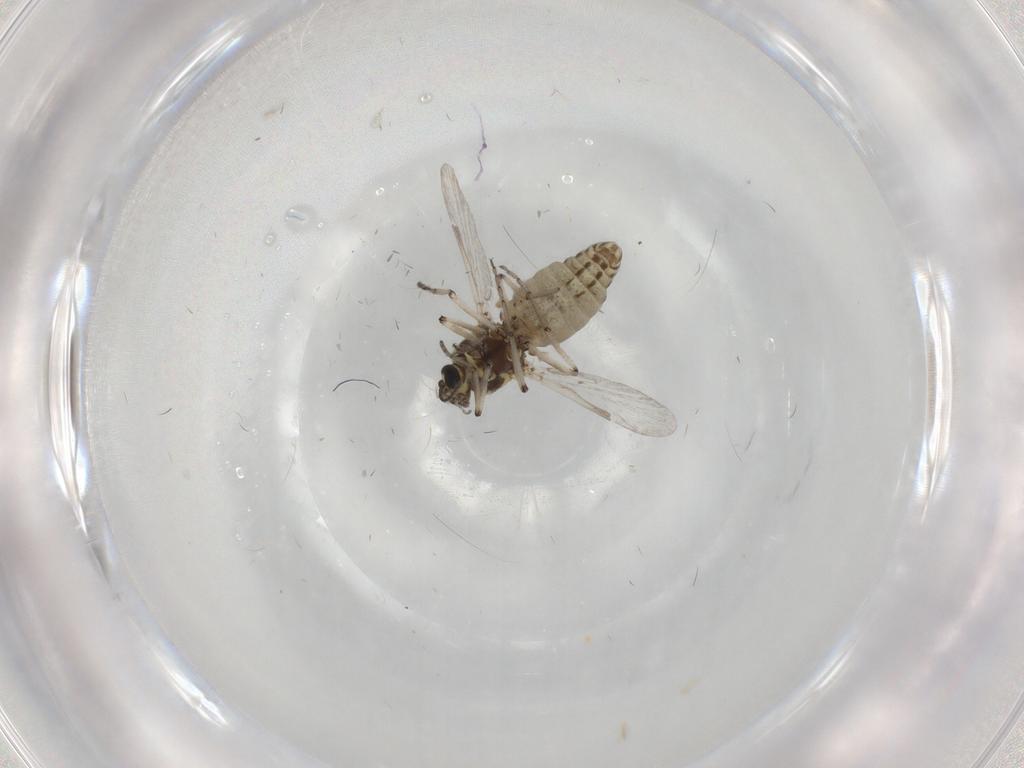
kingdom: Animalia
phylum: Arthropoda
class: Insecta
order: Diptera
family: Ceratopogonidae
